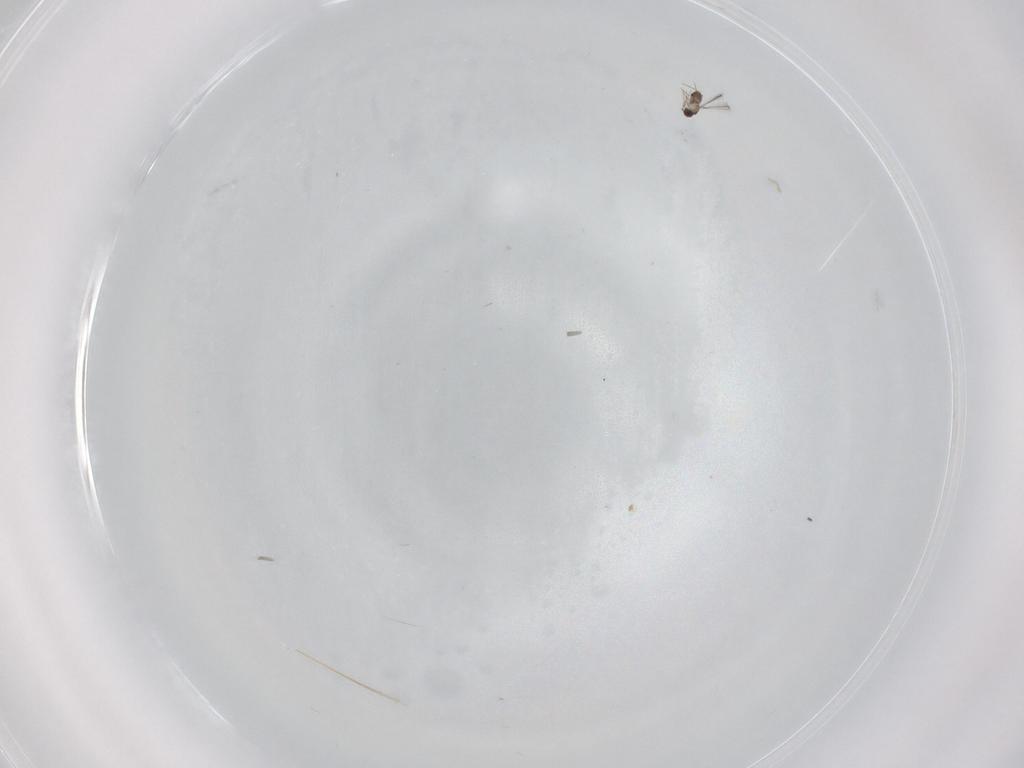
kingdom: Animalia
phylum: Arthropoda
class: Insecta
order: Hymenoptera
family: Mymaridae
